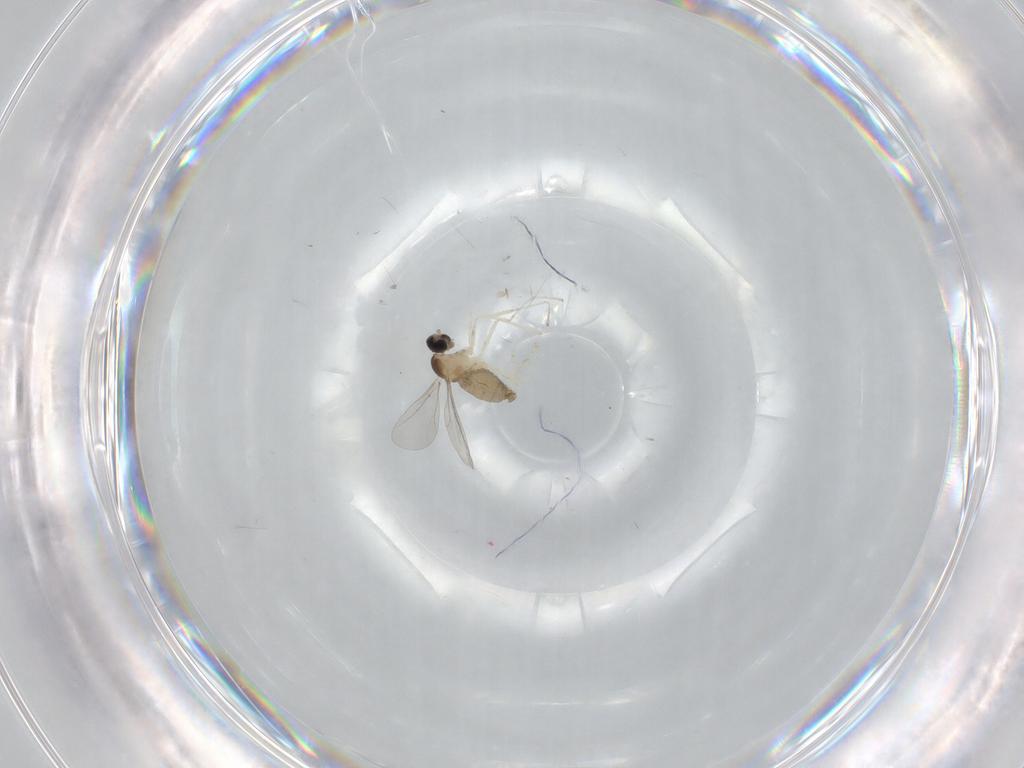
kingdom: Animalia
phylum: Arthropoda
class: Insecta
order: Diptera
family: Cecidomyiidae
